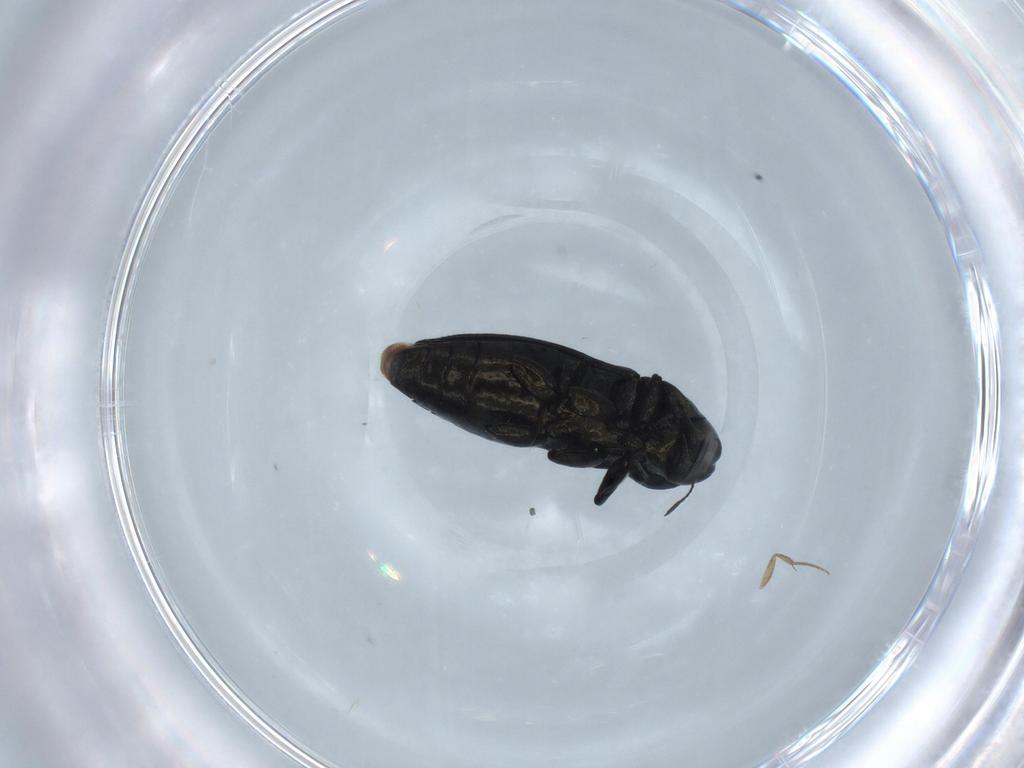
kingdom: Animalia
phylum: Arthropoda
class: Insecta
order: Coleoptera
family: Buprestidae
